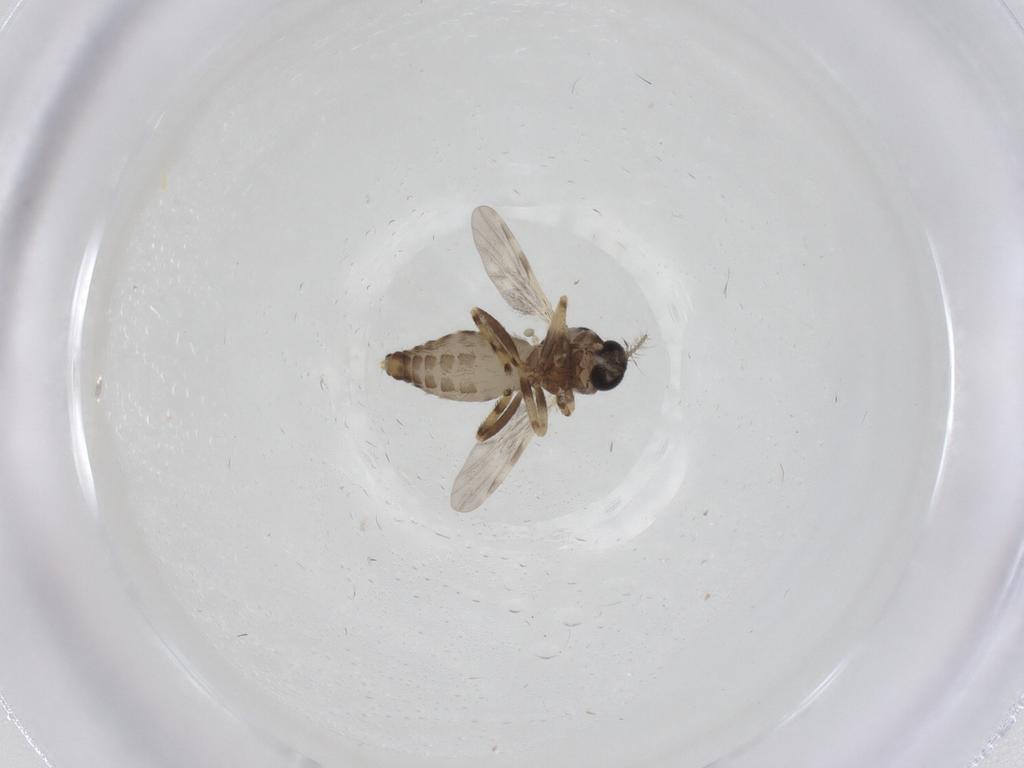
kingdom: Animalia
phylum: Arthropoda
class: Insecta
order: Diptera
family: Ceratopogonidae
